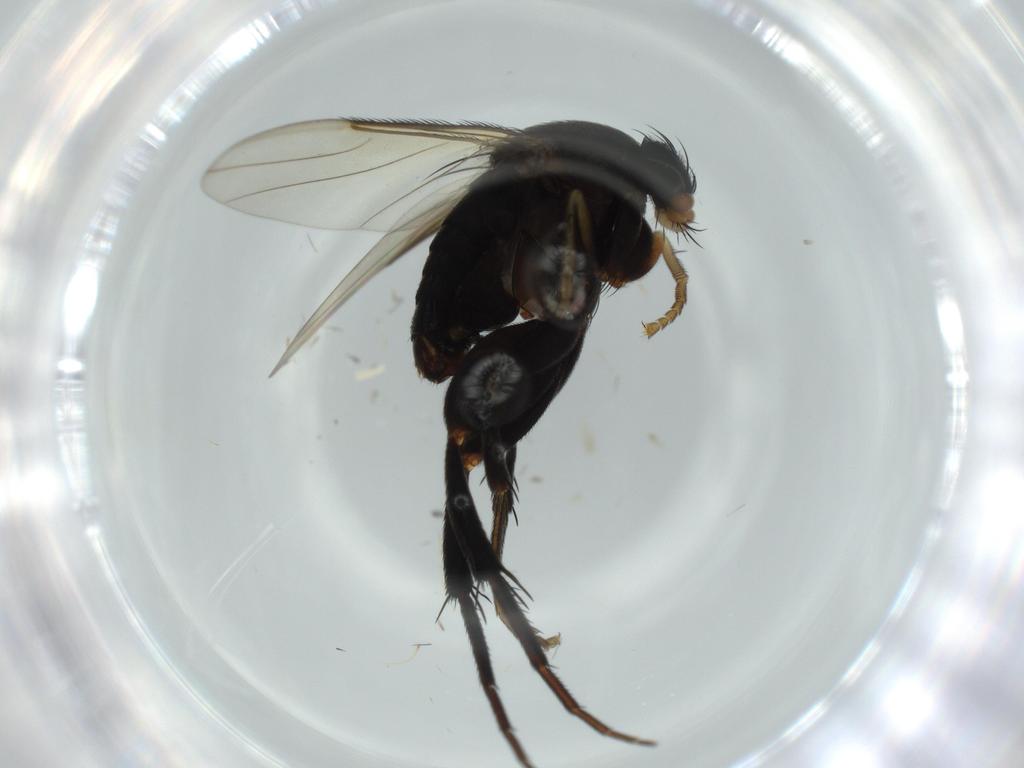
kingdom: Animalia
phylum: Arthropoda
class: Insecta
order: Diptera
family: Phoridae
